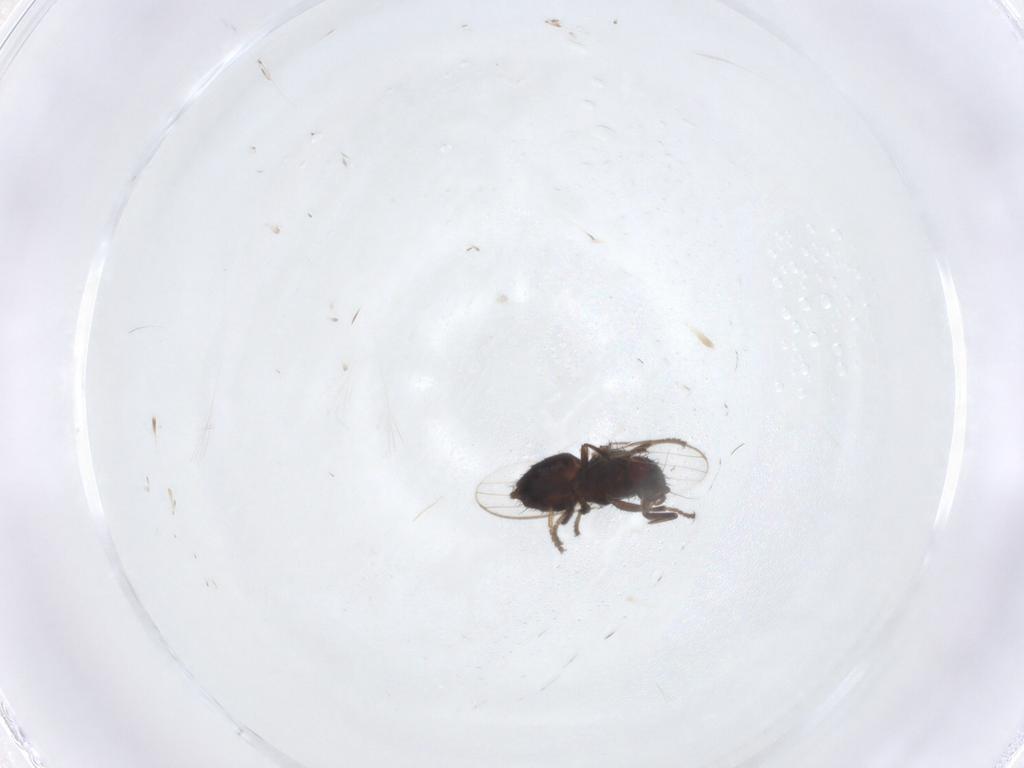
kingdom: Animalia
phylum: Arthropoda
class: Insecta
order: Diptera
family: Milichiidae
